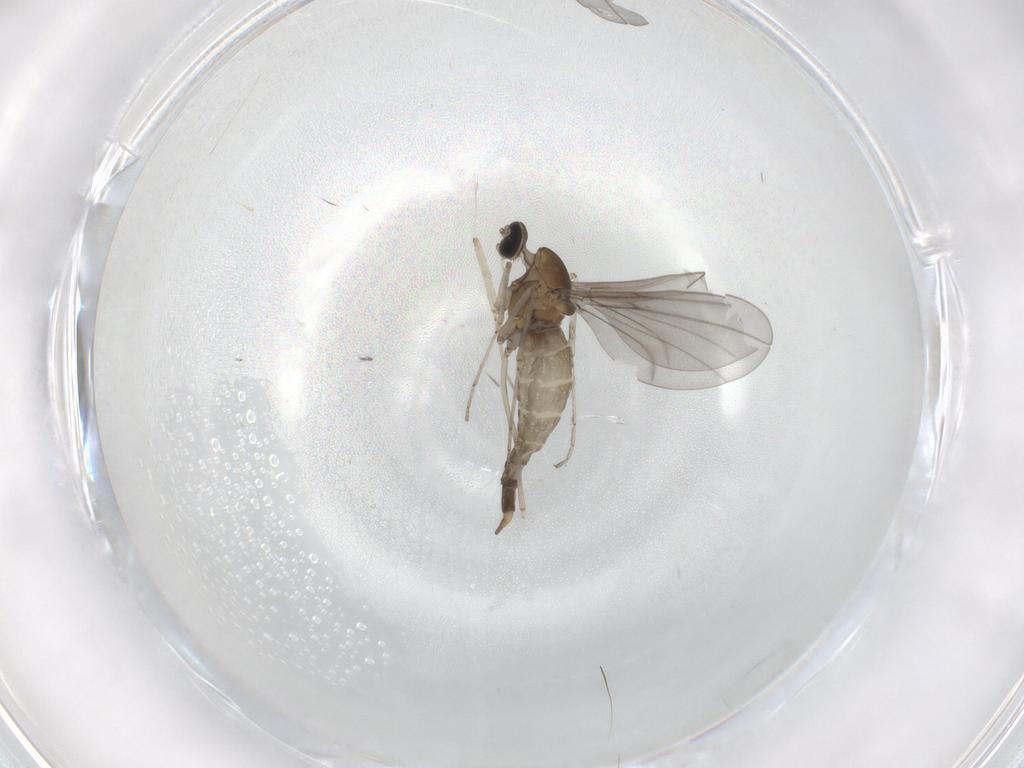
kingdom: Animalia
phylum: Arthropoda
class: Insecta
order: Diptera
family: Cecidomyiidae
